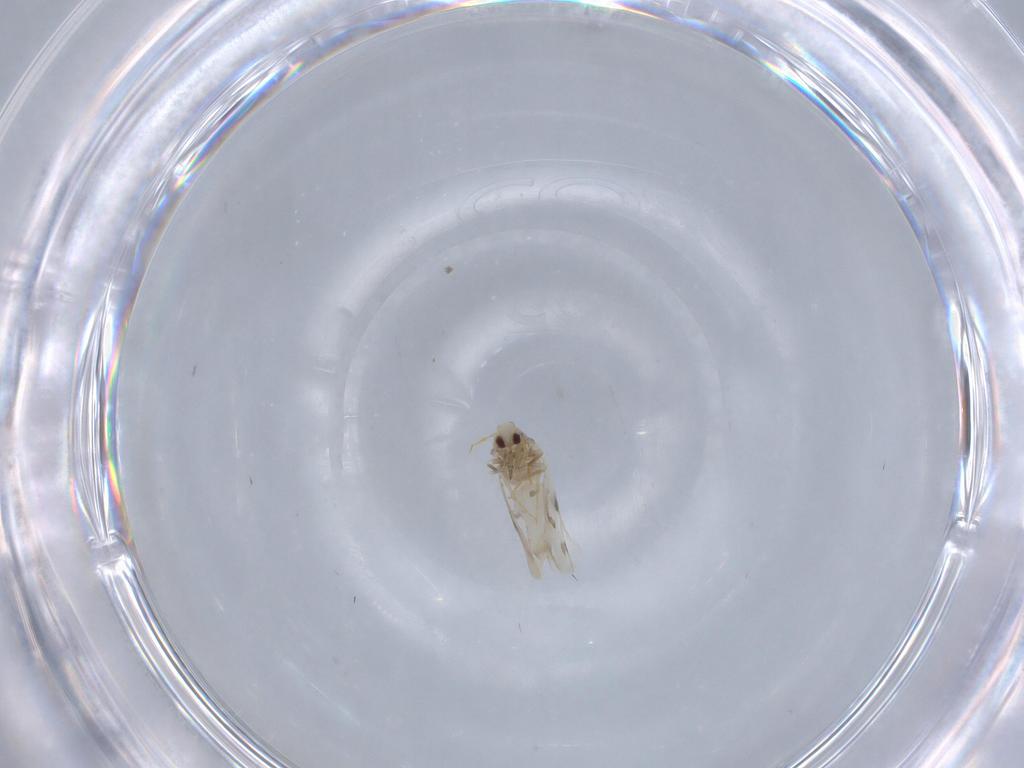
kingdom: Animalia
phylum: Arthropoda
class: Insecta
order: Hemiptera
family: Aleyrodidae
